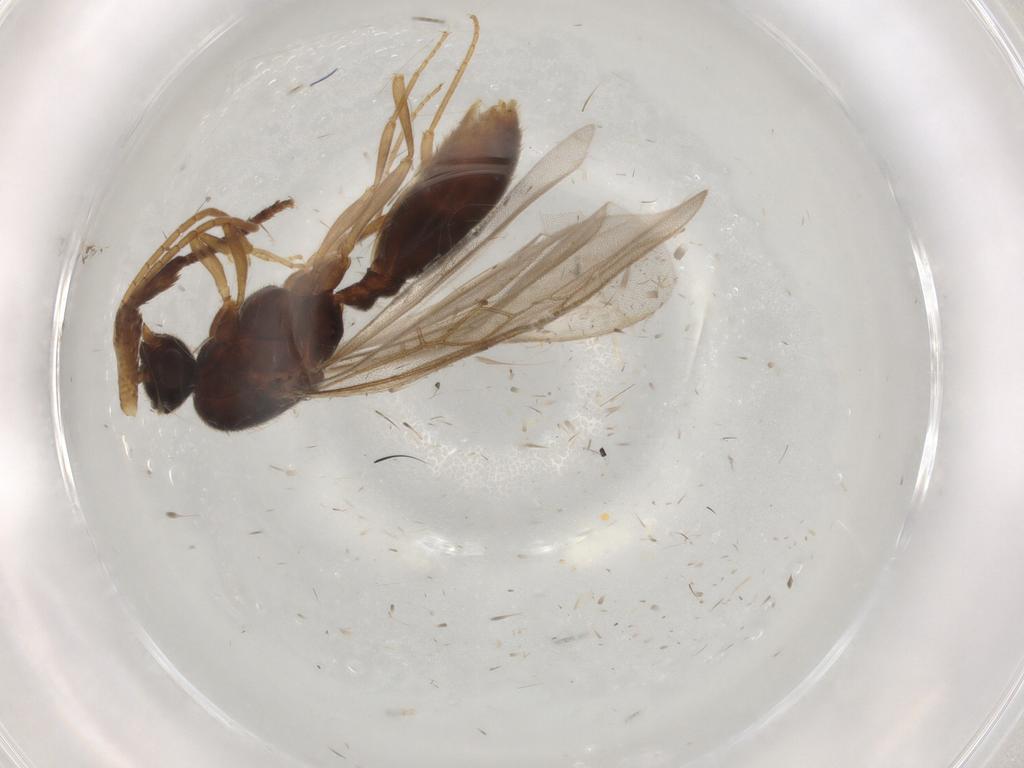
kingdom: Animalia
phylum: Arthropoda
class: Insecta
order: Hymenoptera
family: Formicidae
